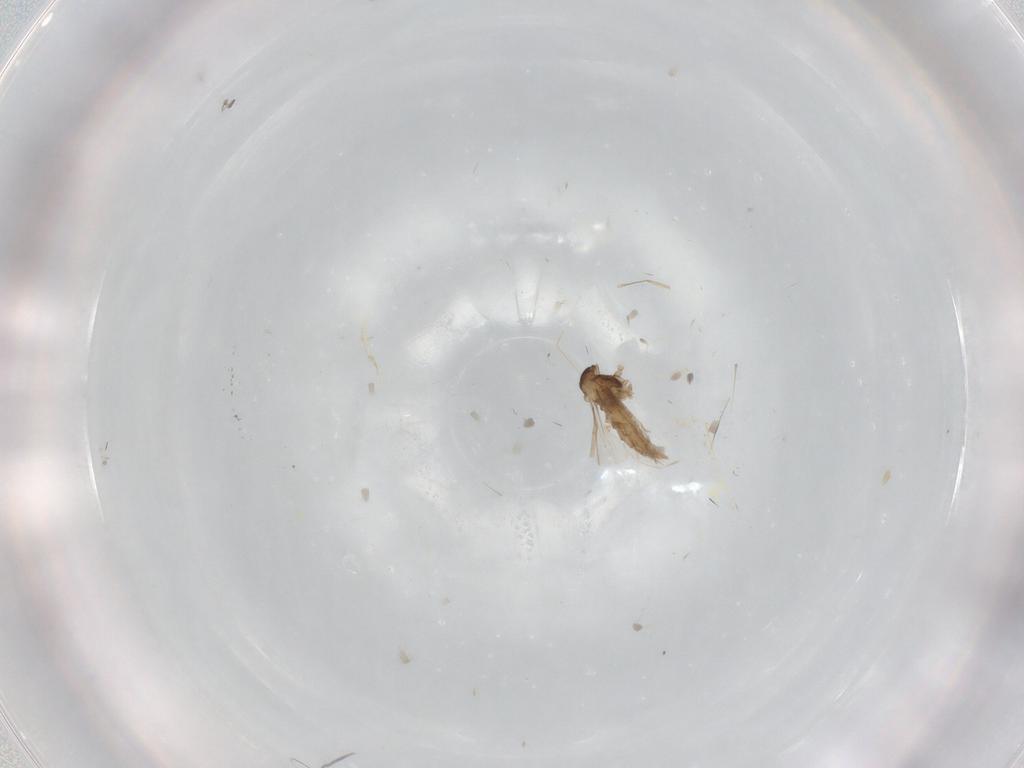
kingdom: Animalia
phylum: Arthropoda
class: Insecta
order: Diptera
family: Cecidomyiidae
